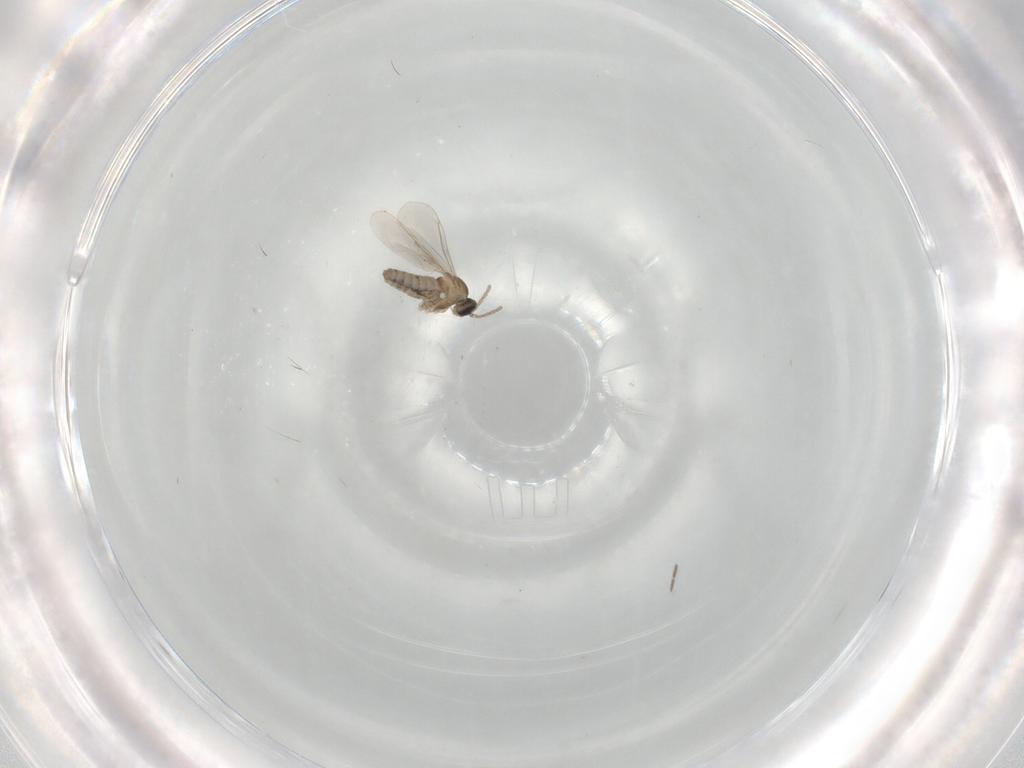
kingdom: Animalia
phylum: Arthropoda
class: Insecta
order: Diptera
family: Cecidomyiidae
